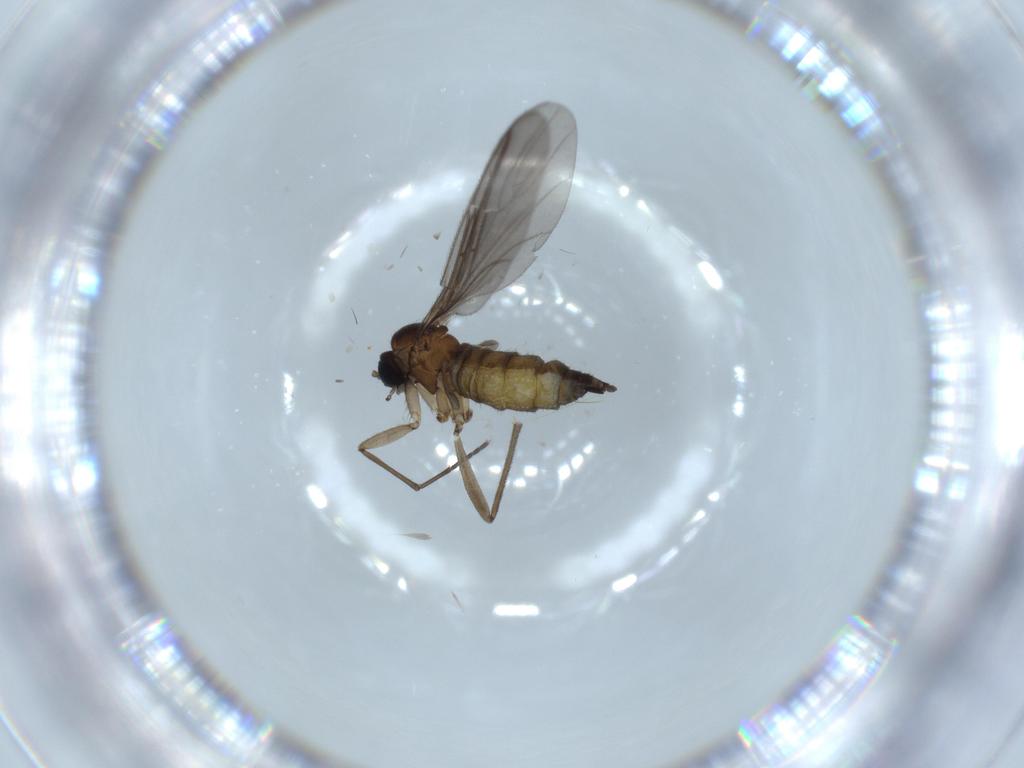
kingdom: Animalia
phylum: Arthropoda
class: Insecta
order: Diptera
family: Sciaridae
